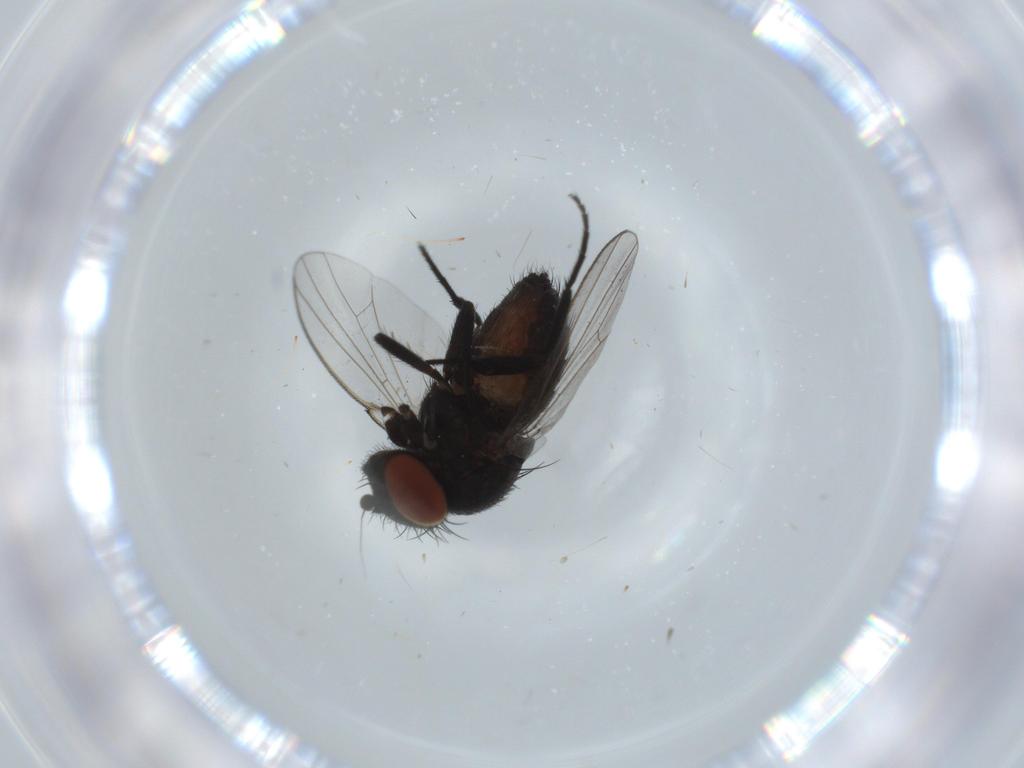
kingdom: Animalia
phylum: Arthropoda
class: Insecta
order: Diptera
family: Milichiidae
